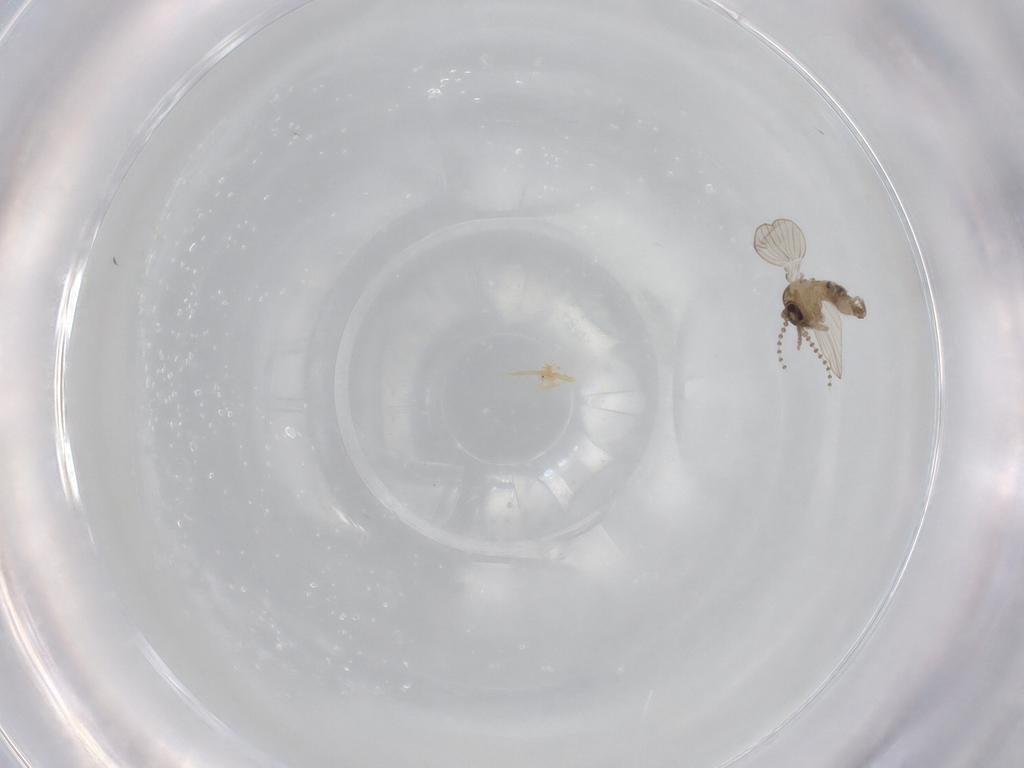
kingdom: Animalia
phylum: Arthropoda
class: Insecta
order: Diptera
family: Psychodidae
